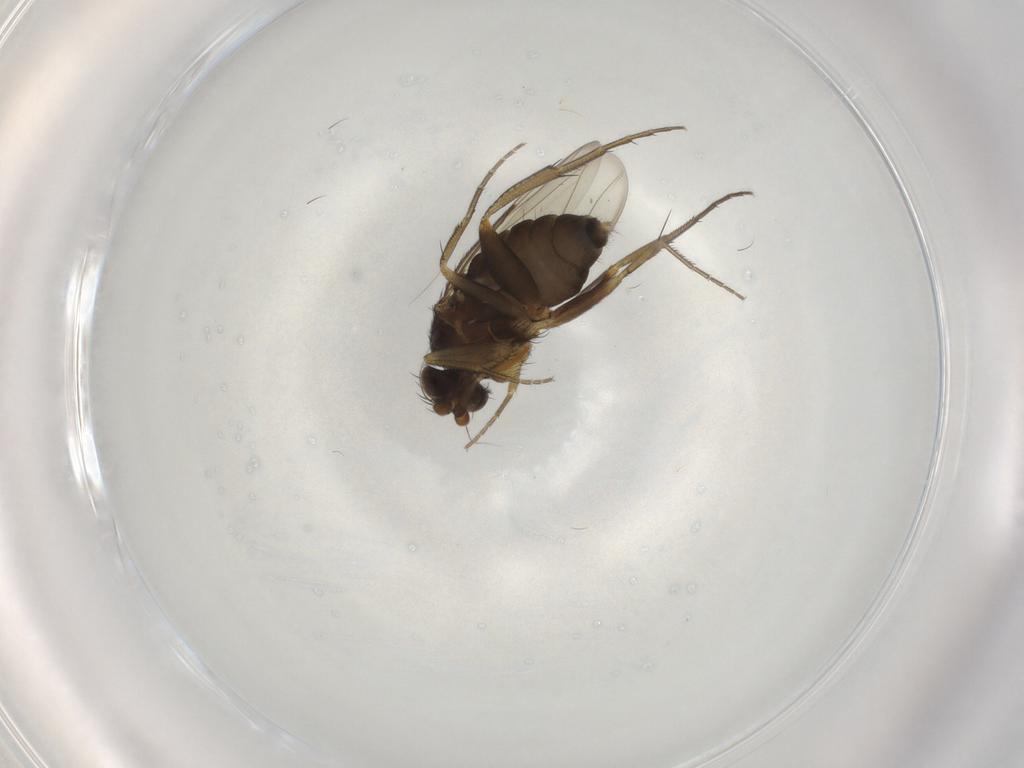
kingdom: Animalia
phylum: Arthropoda
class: Insecta
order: Diptera
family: Phoridae
